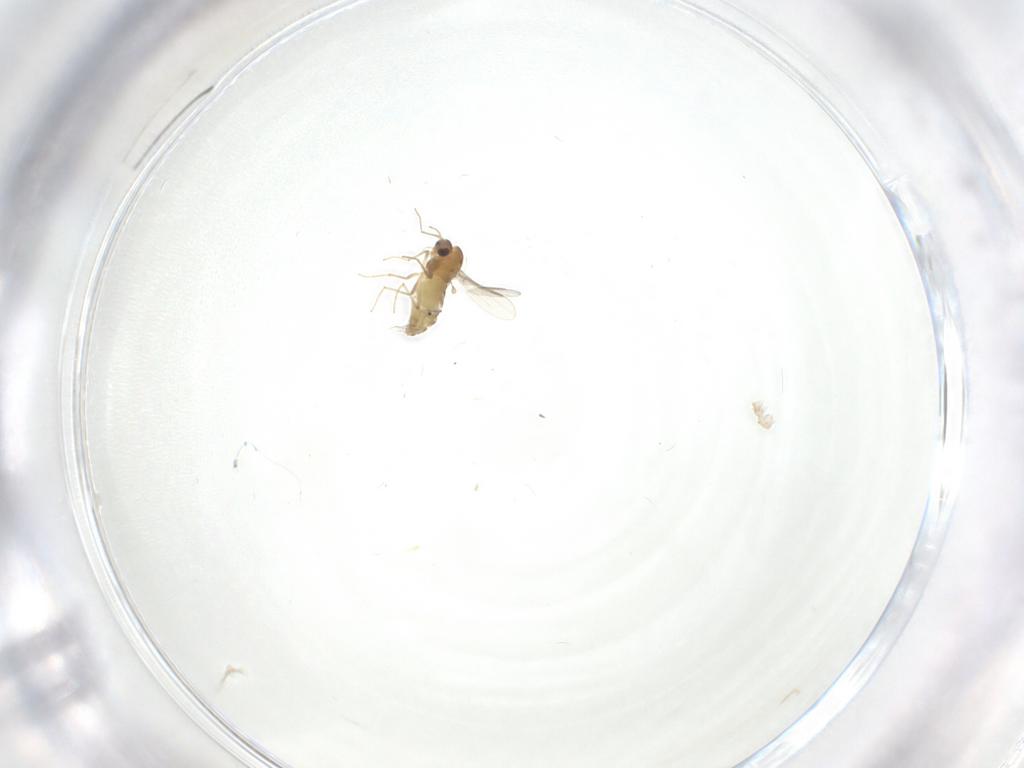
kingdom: Animalia
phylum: Arthropoda
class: Insecta
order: Diptera
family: Chironomidae
